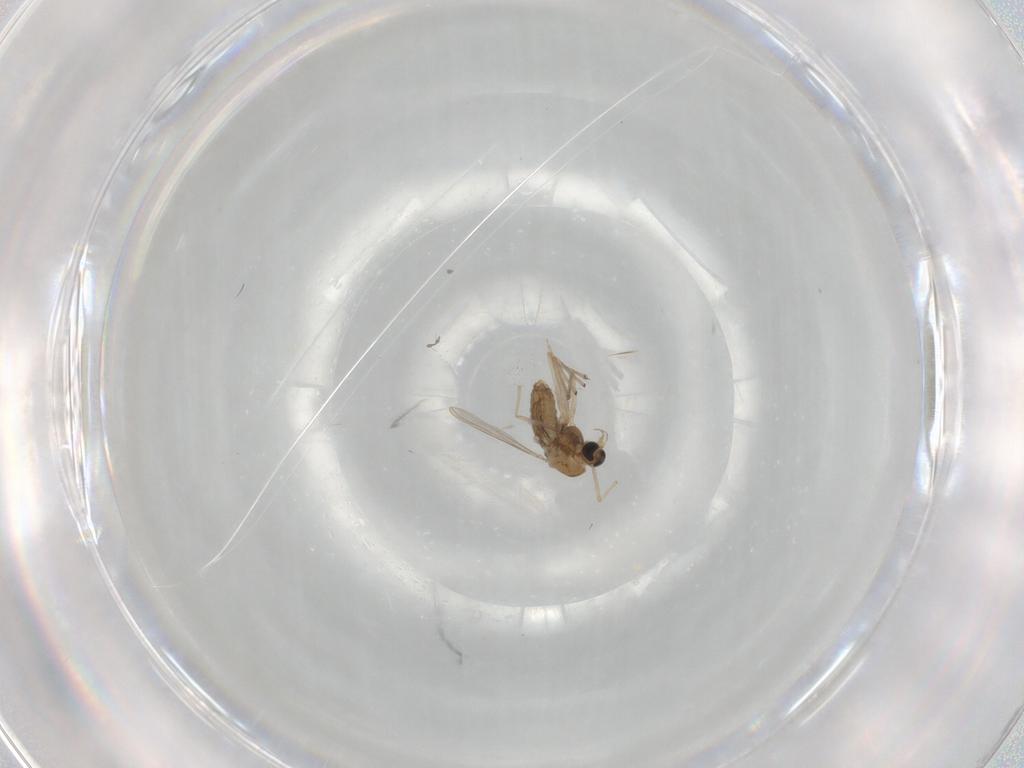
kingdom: Animalia
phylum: Arthropoda
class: Insecta
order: Diptera
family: Chironomidae
